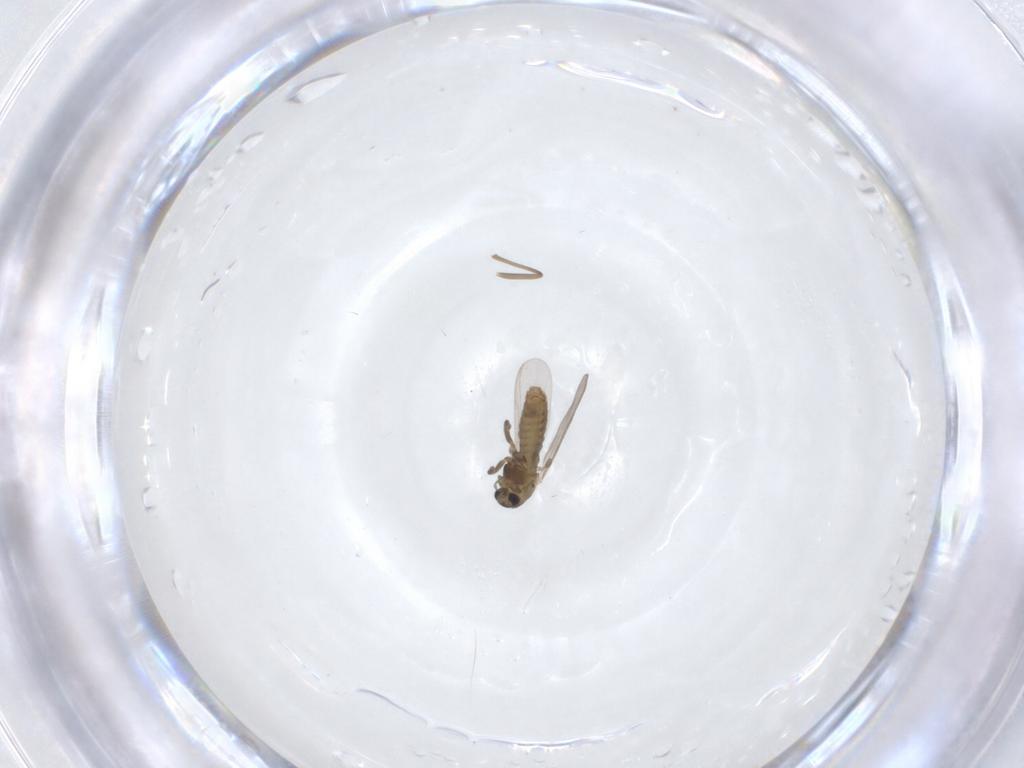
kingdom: Animalia
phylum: Arthropoda
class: Insecta
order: Diptera
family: Chironomidae
